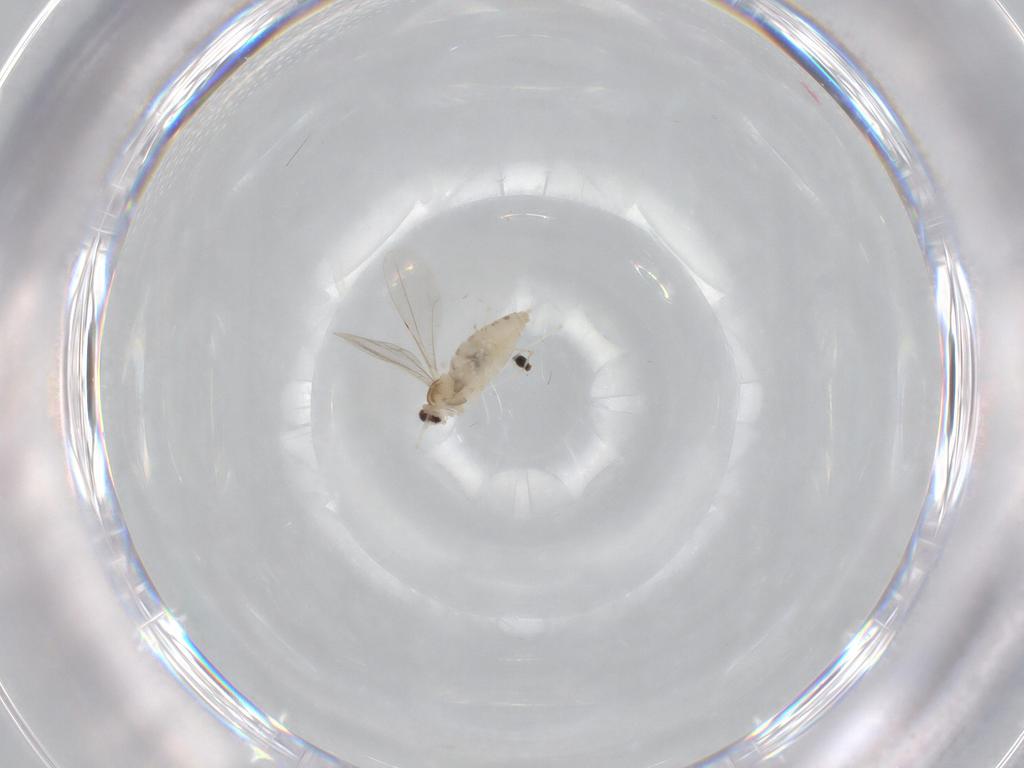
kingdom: Animalia
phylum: Arthropoda
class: Insecta
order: Diptera
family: Cecidomyiidae
